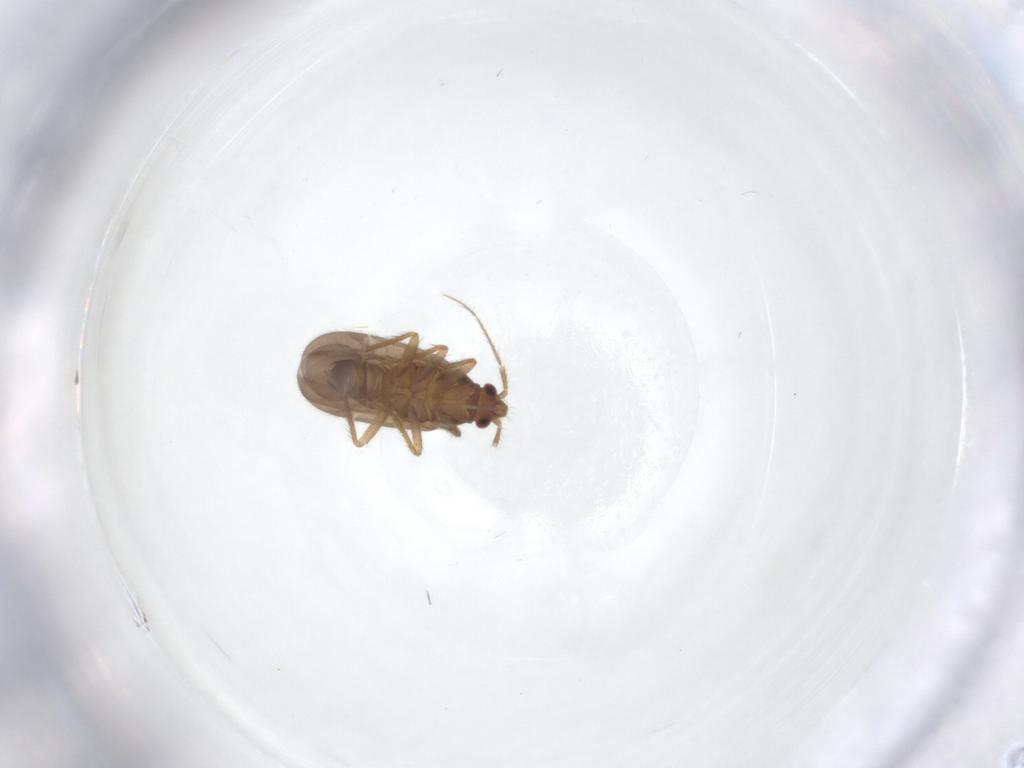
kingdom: Animalia
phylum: Arthropoda
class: Insecta
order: Hemiptera
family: Ceratocombidae
